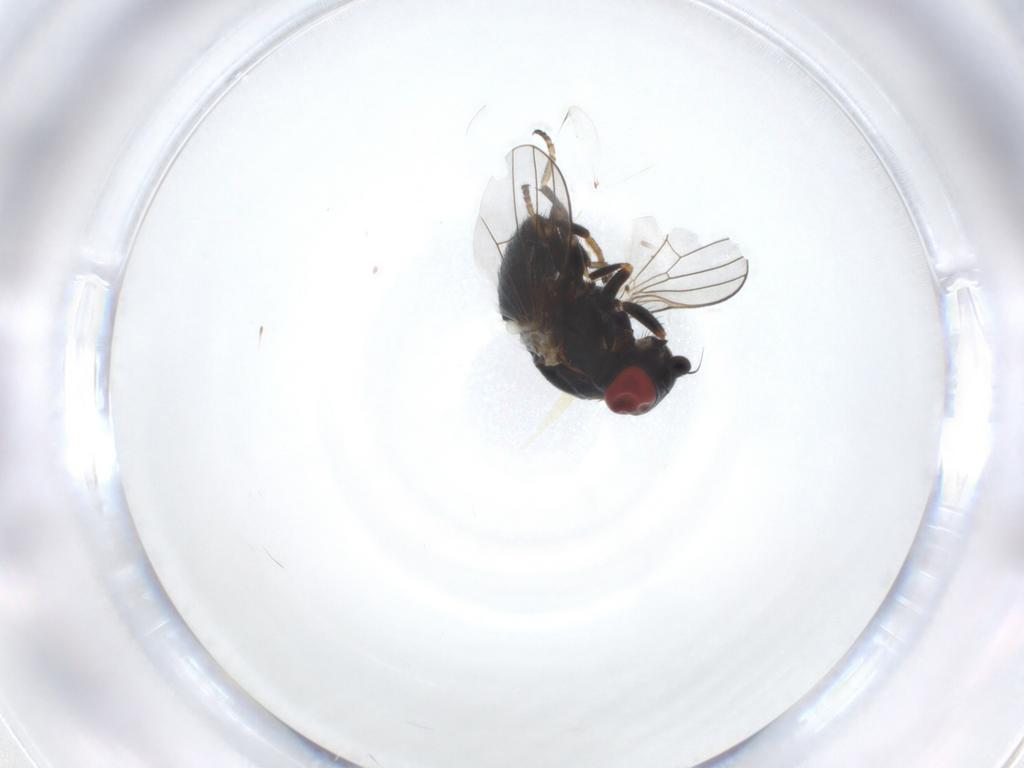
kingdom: Animalia
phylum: Arthropoda
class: Insecta
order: Diptera
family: Chamaemyiidae
